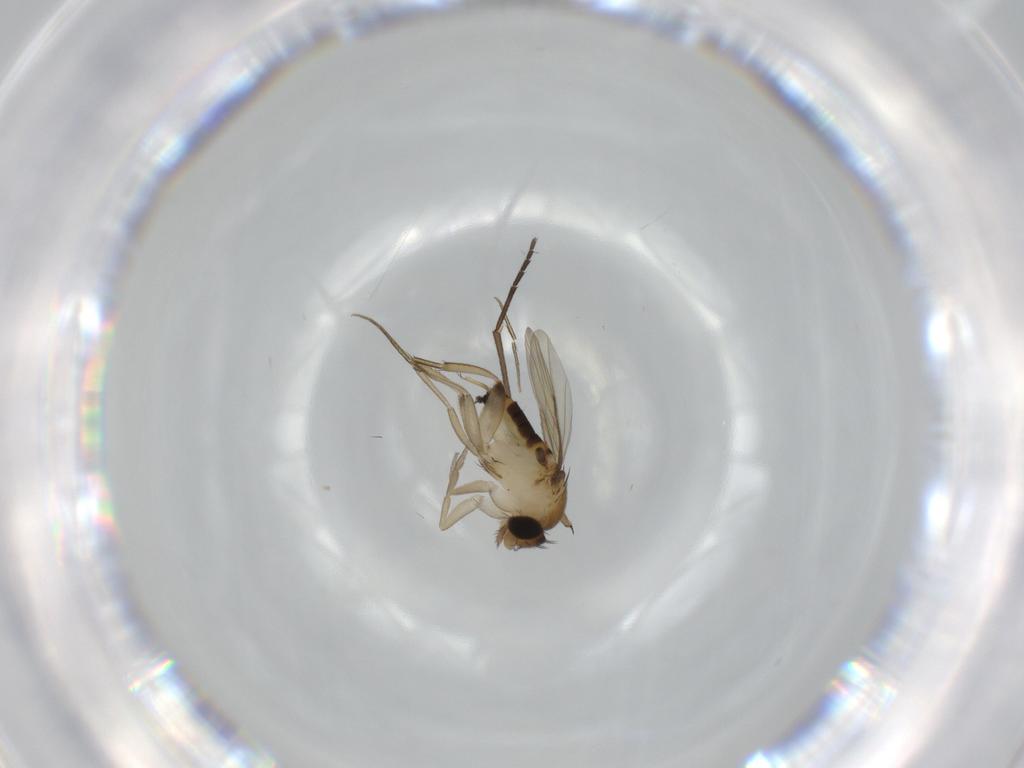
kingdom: Animalia
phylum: Arthropoda
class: Insecta
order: Diptera
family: Phoridae
